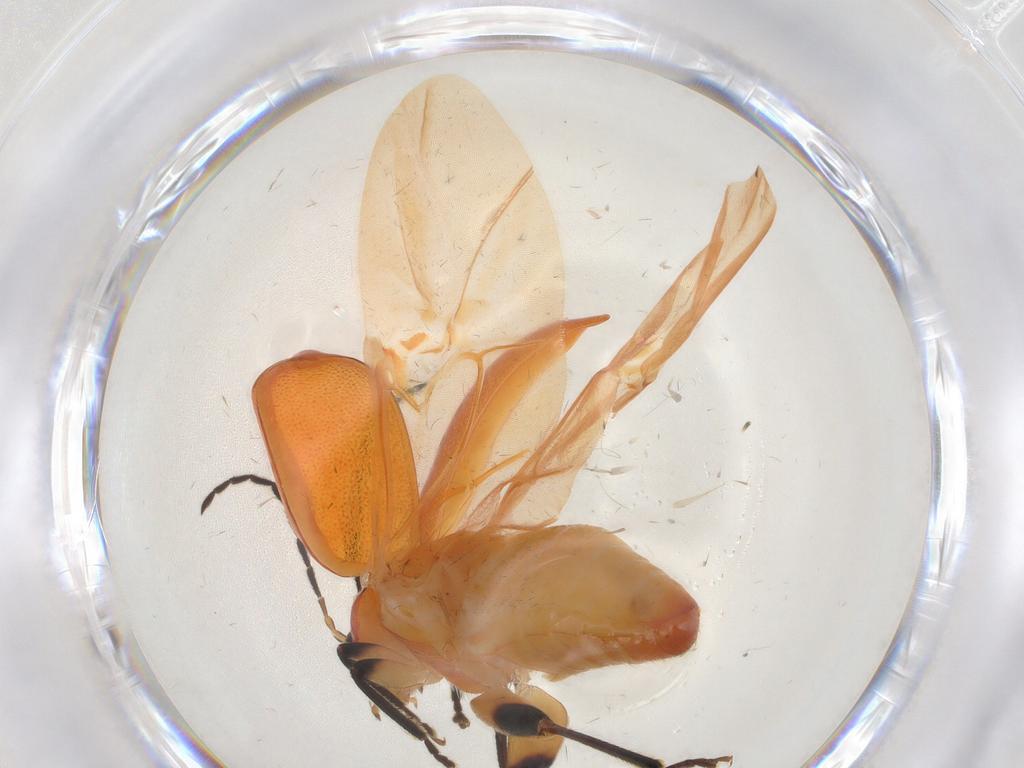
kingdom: Animalia
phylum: Arthropoda
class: Insecta
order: Coleoptera
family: Chrysomelidae
